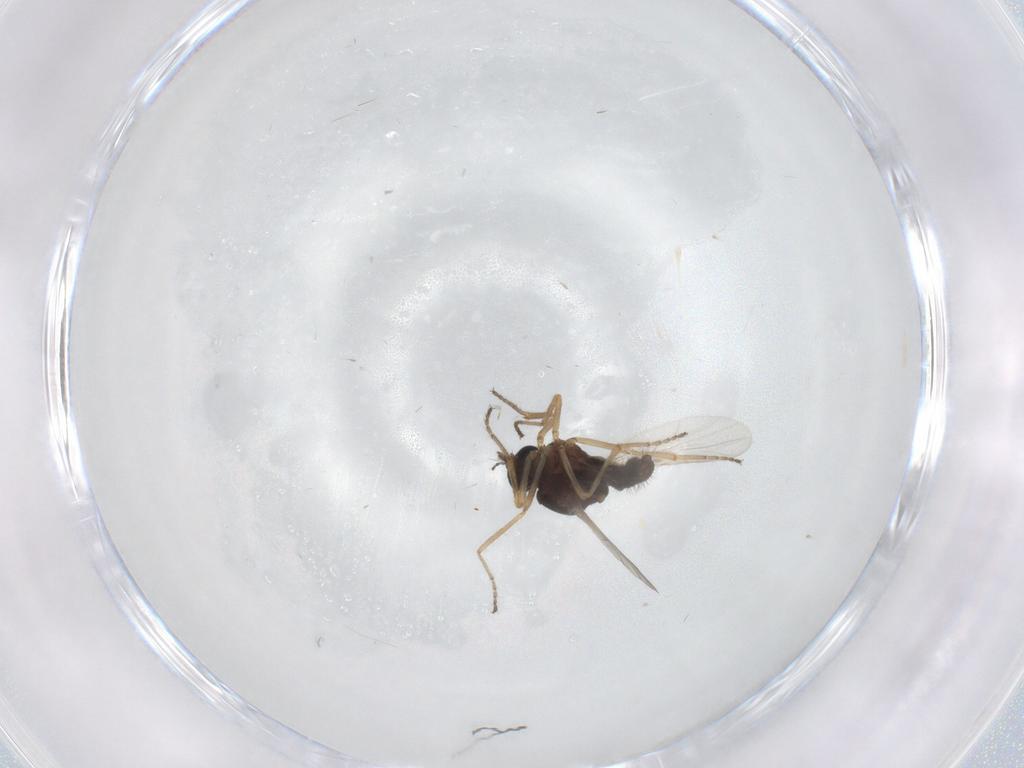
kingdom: Animalia
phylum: Arthropoda
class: Insecta
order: Diptera
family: Ceratopogonidae
